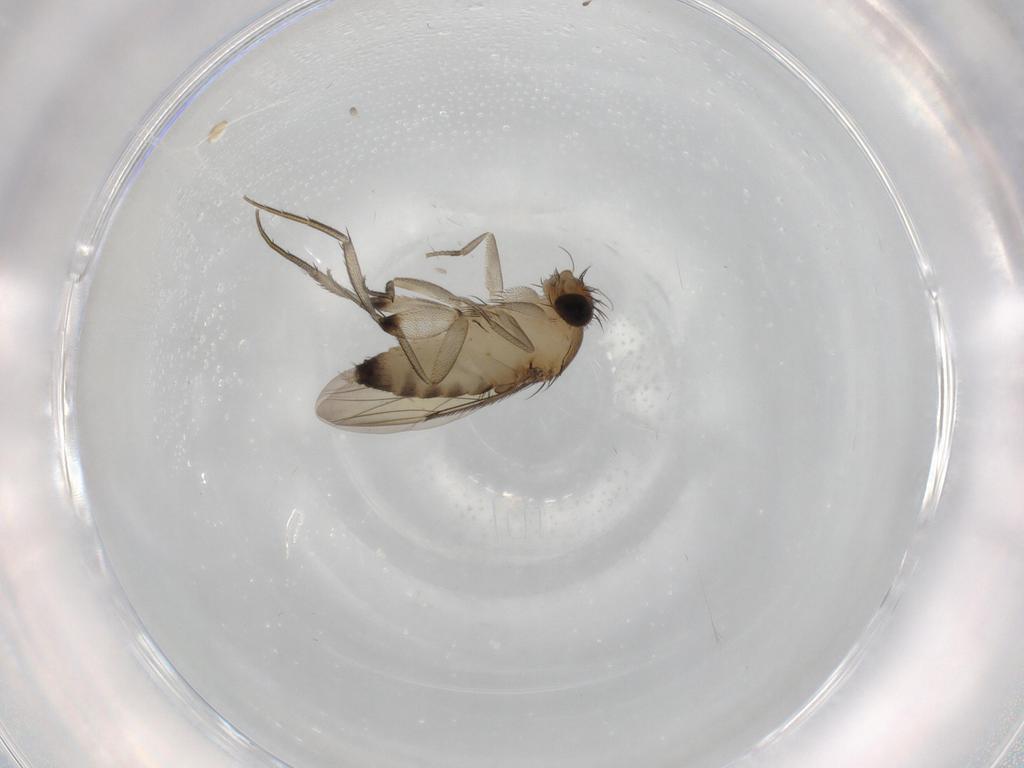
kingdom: Animalia
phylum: Arthropoda
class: Insecta
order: Diptera
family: Phoridae
